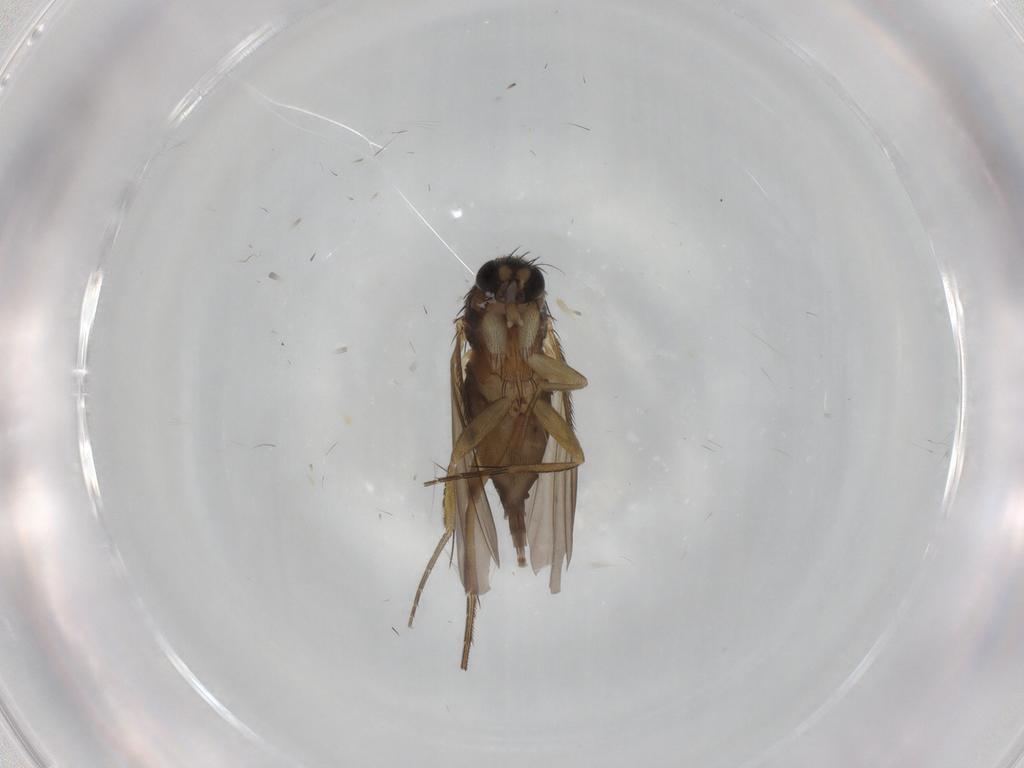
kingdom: Animalia
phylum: Arthropoda
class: Insecta
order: Diptera
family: Phoridae
